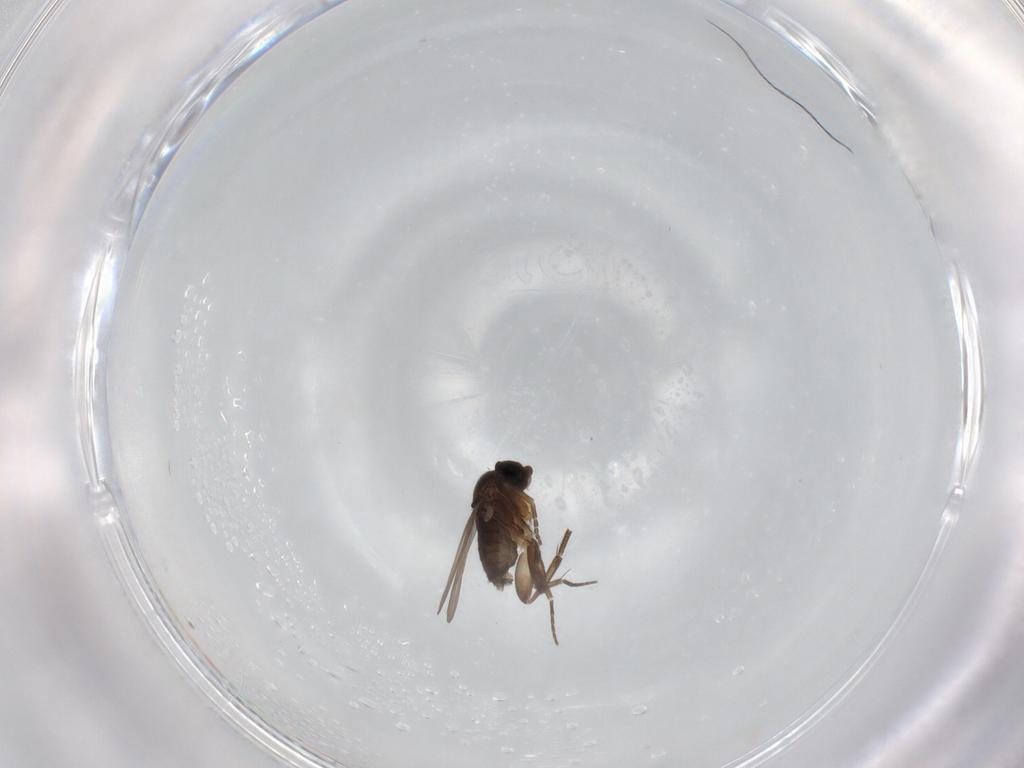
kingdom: Animalia
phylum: Arthropoda
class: Insecta
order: Diptera
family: Phoridae
